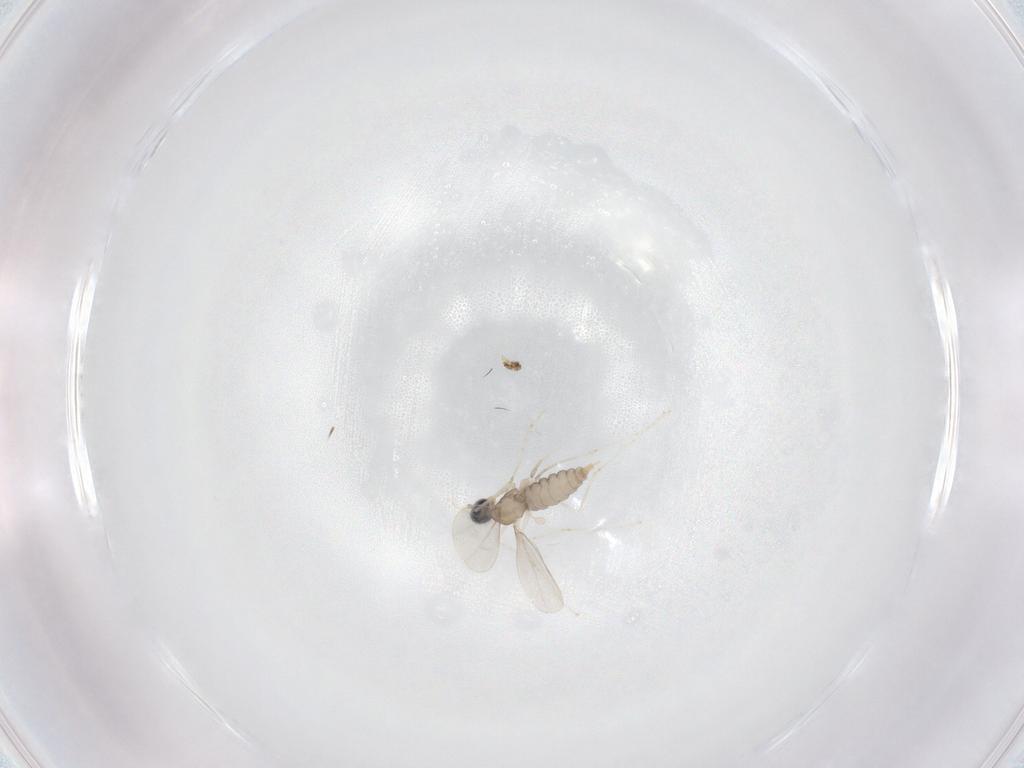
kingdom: Animalia
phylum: Arthropoda
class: Insecta
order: Diptera
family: Cecidomyiidae
